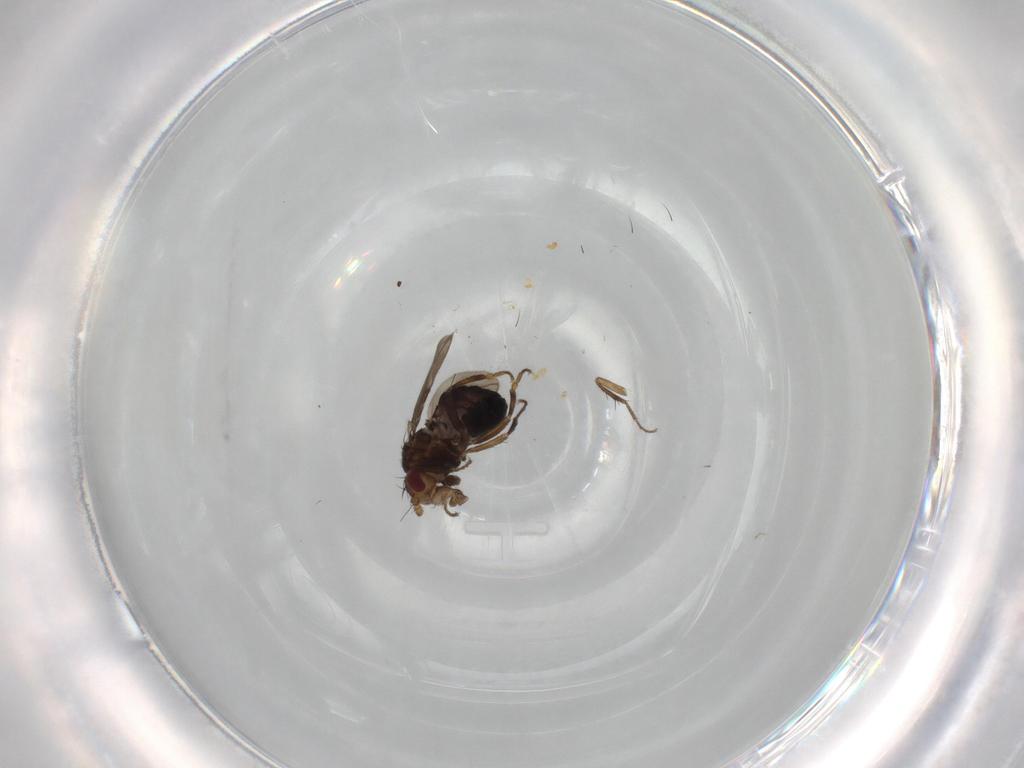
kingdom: Animalia
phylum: Arthropoda
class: Insecta
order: Diptera
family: Sphaeroceridae
